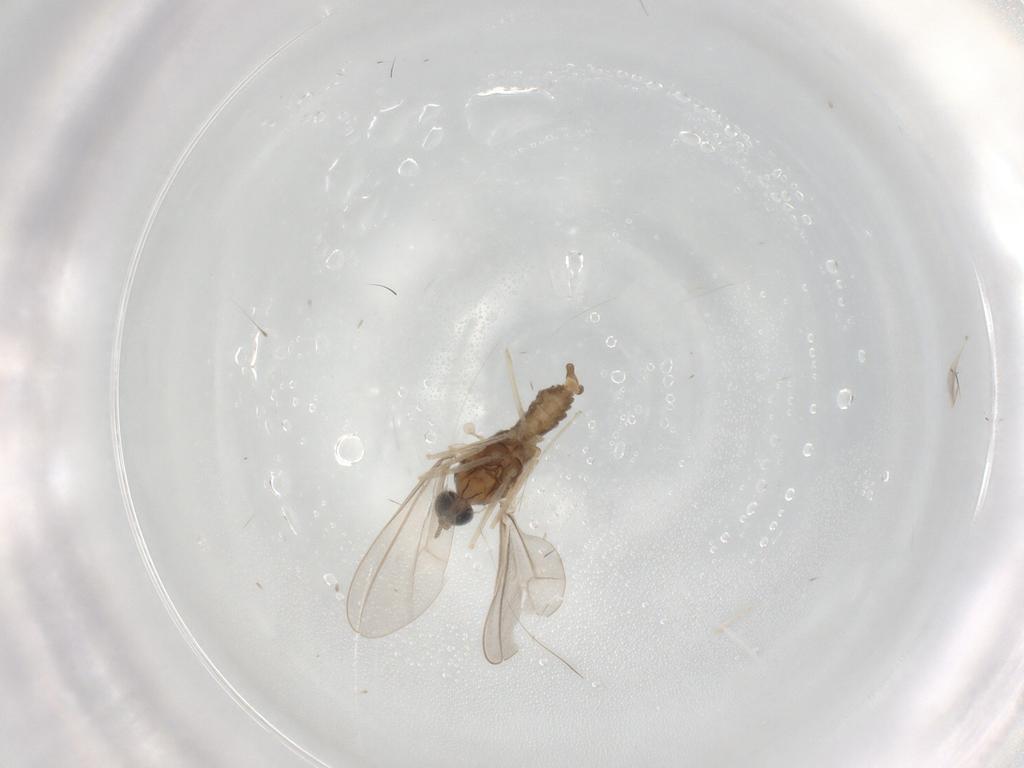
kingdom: Animalia
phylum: Arthropoda
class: Insecta
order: Diptera
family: Cecidomyiidae
